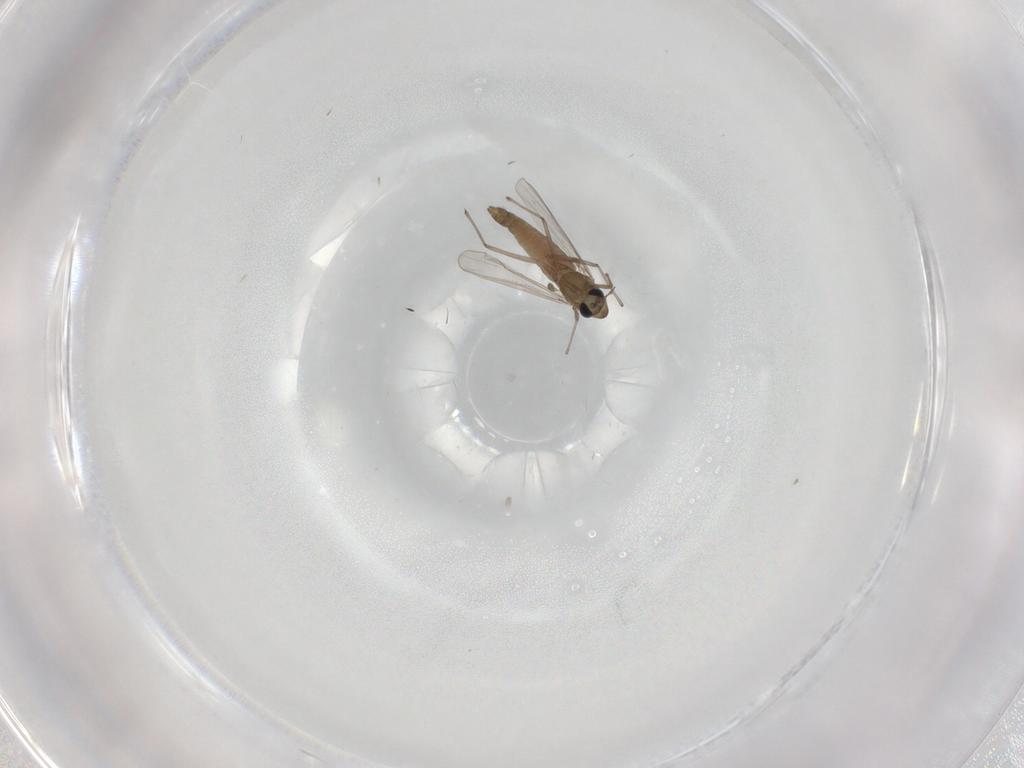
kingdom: Animalia
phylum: Arthropoda
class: Insecta
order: Diptera
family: Chironomidae
